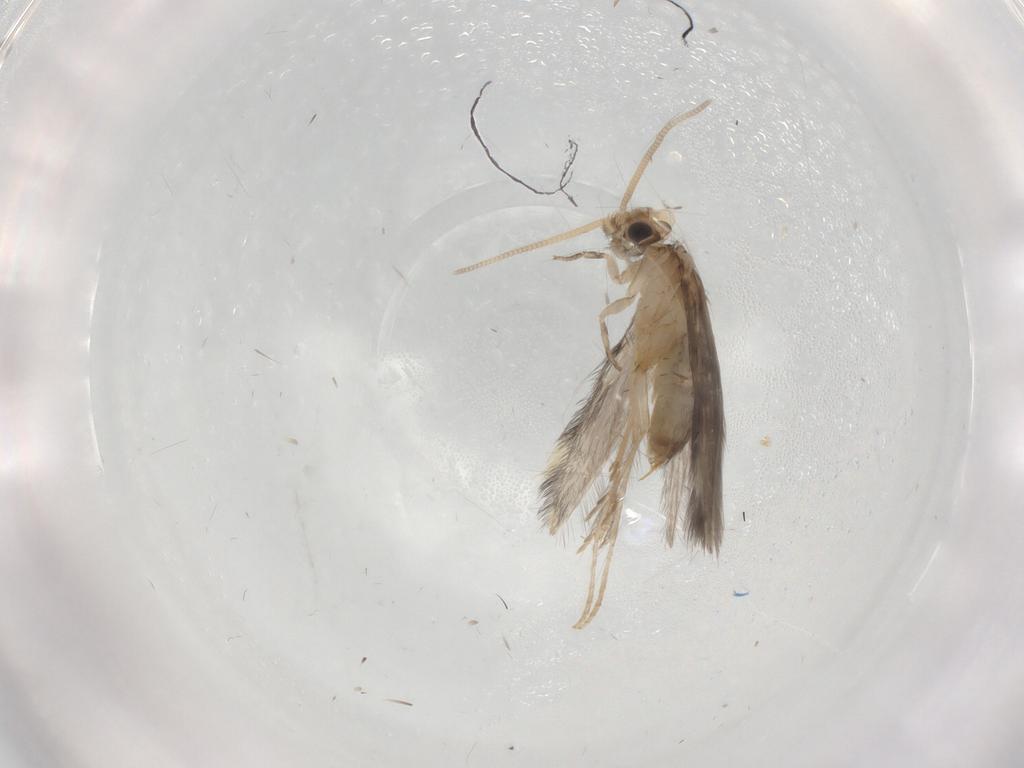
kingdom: Animalia
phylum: Arthropoda
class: Insecta
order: Trichoptera
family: Hydroptilidae
